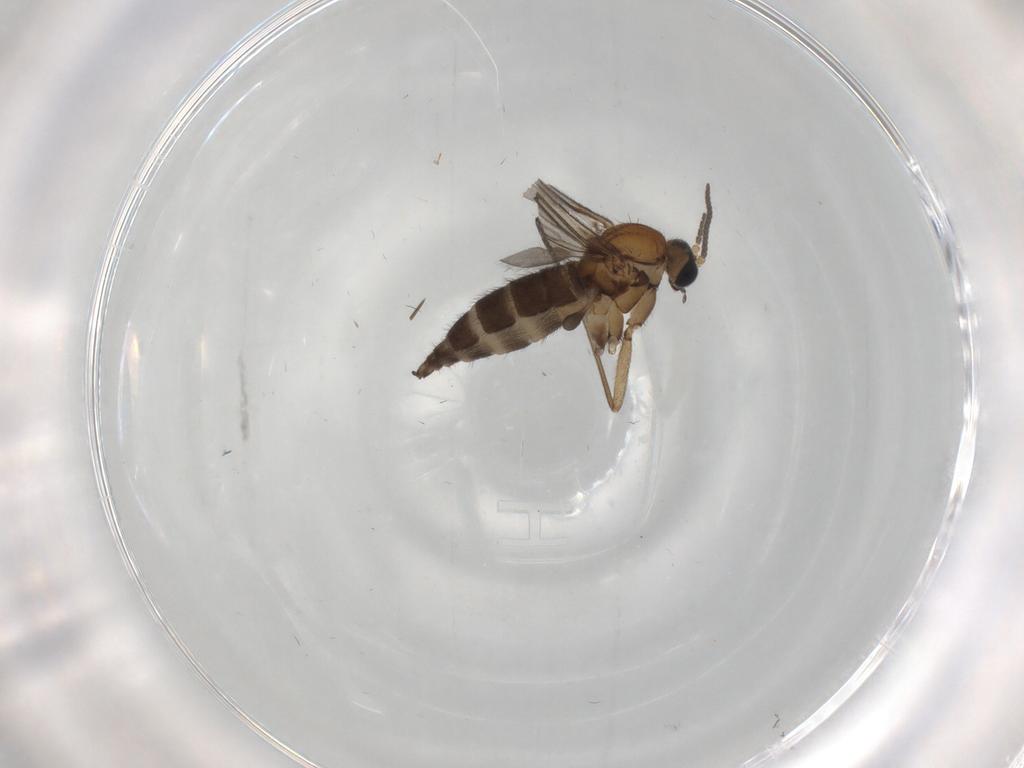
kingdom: Animalia
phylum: Arthropoda
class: Insecta
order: Diptera
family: Sciaridae
